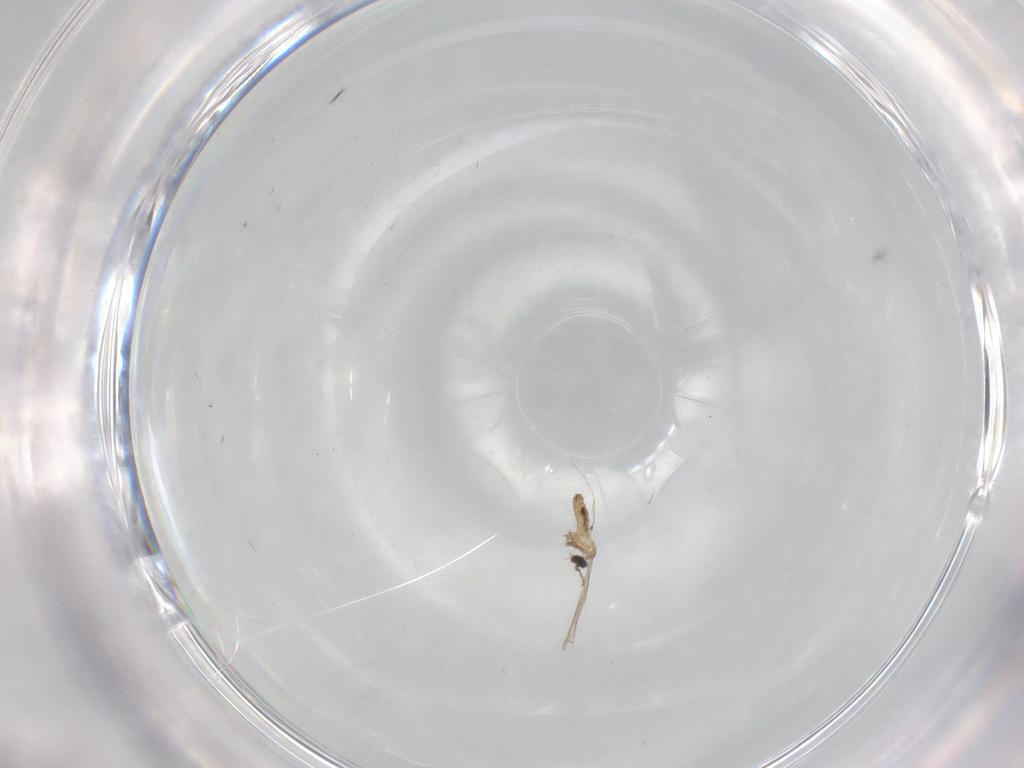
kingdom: Animalia
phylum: Arthropoda
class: Insecta
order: Diptera
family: Cecidomyiidae
